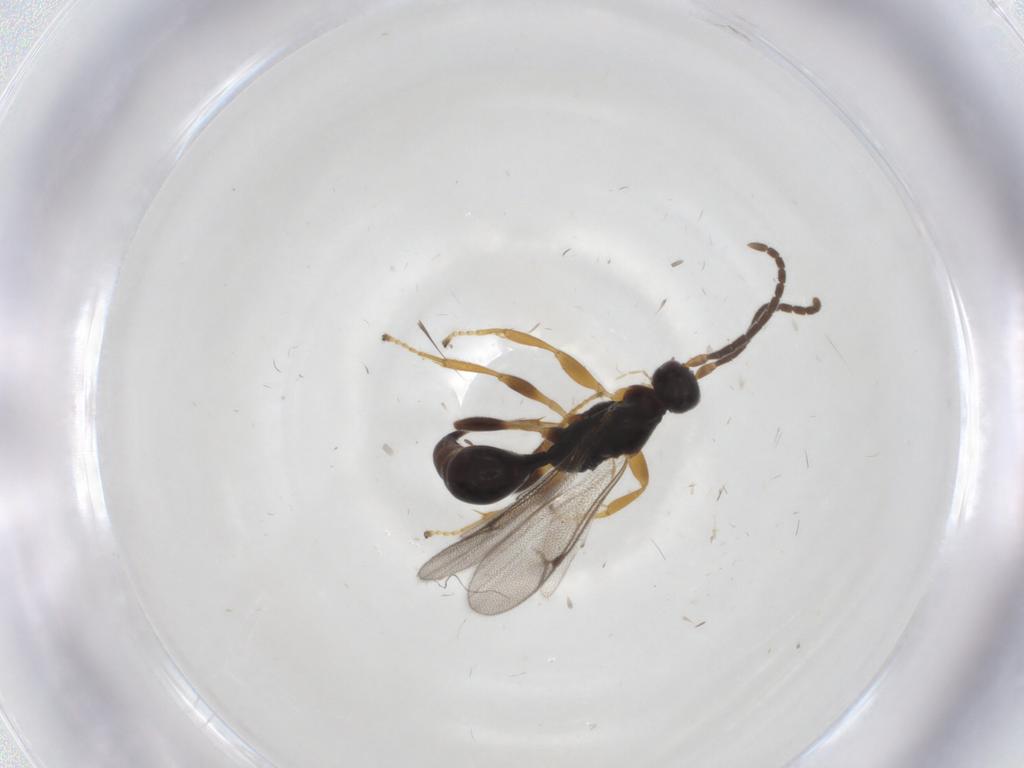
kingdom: Animalia
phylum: Arthropoda
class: Insecta
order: Hymenoptera
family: Proctotrupidae
